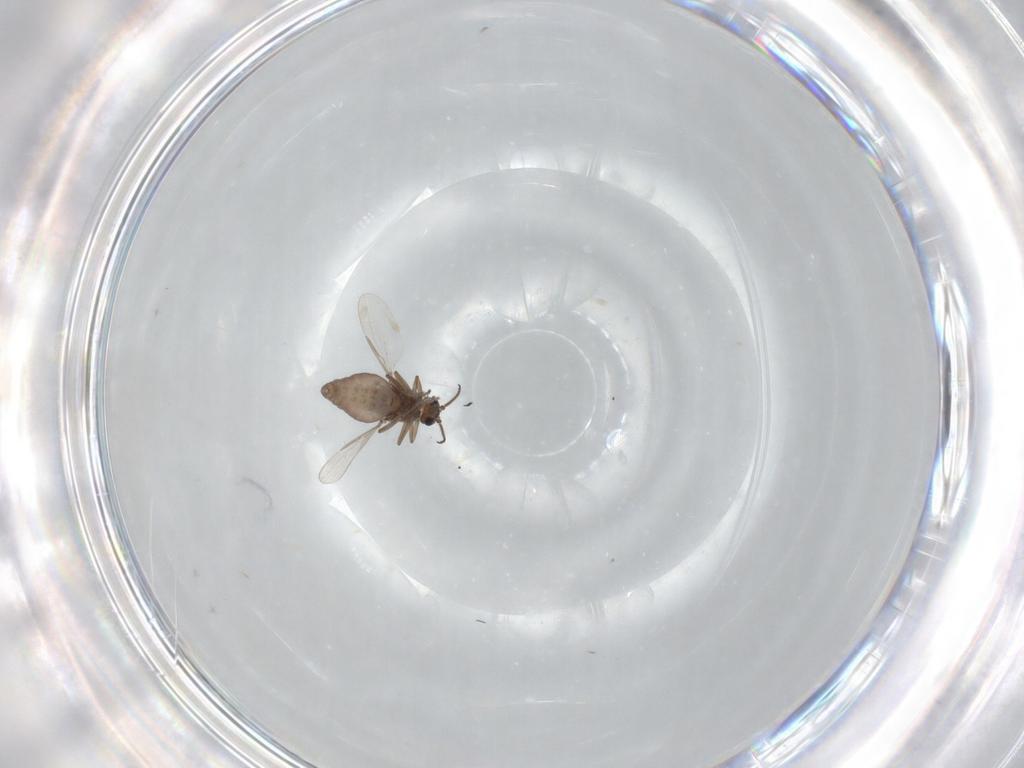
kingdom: Animalia
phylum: Arthropoda
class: Insecta
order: Diptera
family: Ceratopogonidae
